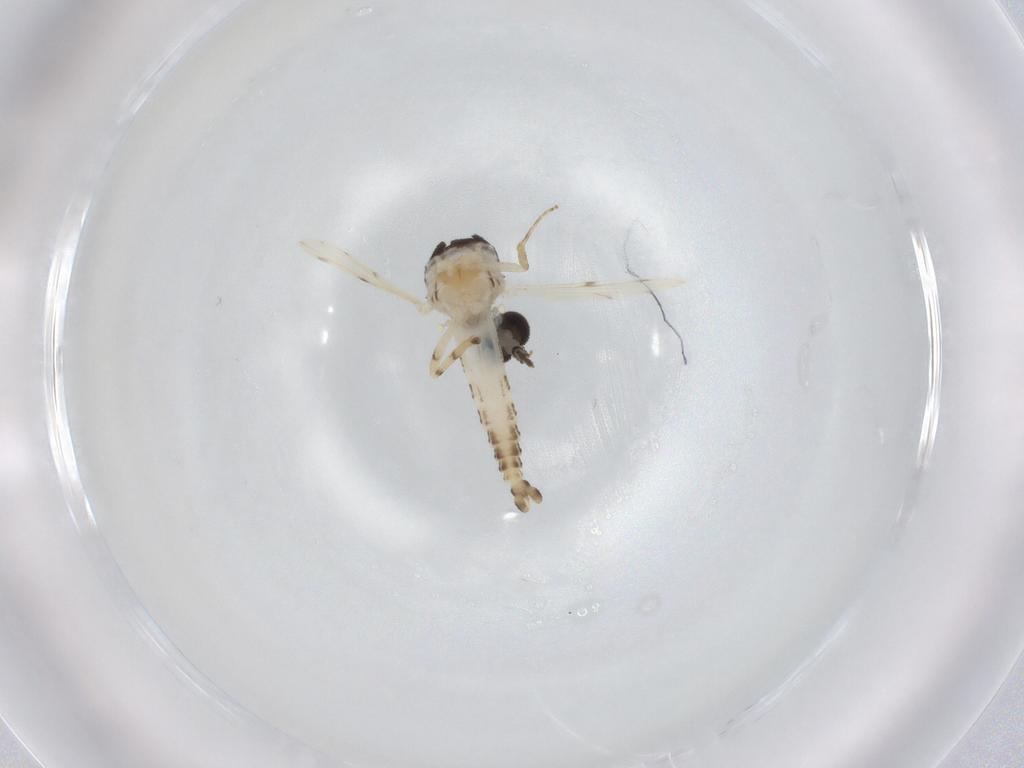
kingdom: Animalia
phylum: Arthropoda
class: Insecta
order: Diptera
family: Ceratopogonidae
